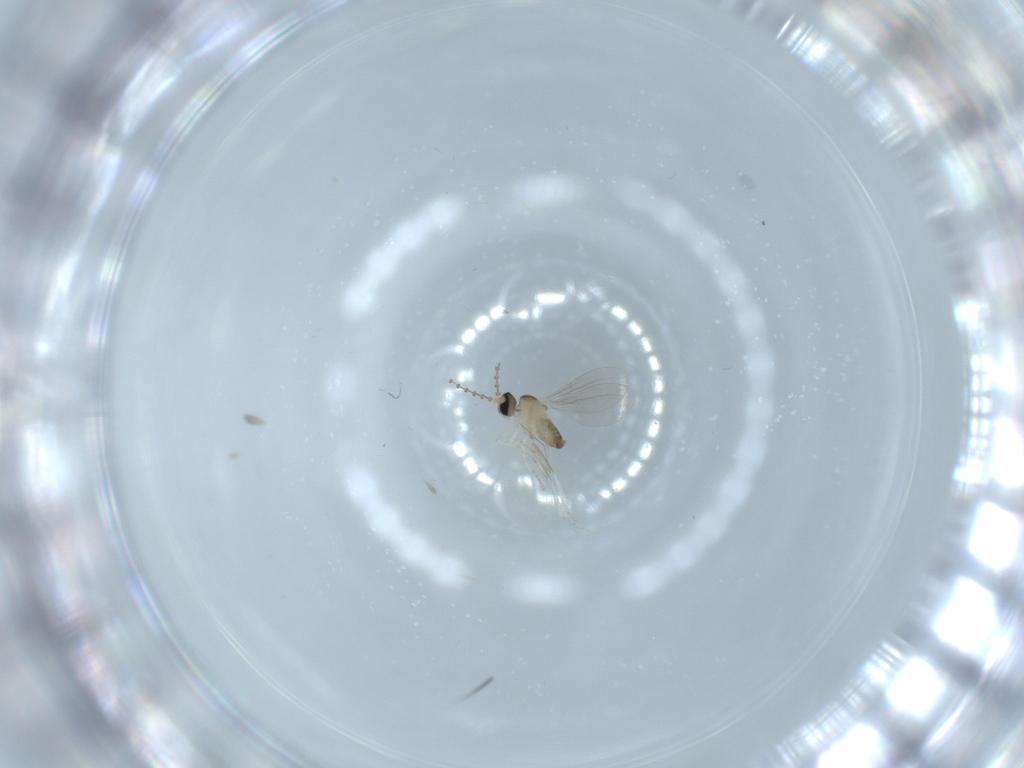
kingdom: Animalia
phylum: Arthropoda
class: Insecta
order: Diptera
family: Cecidomyiidae
